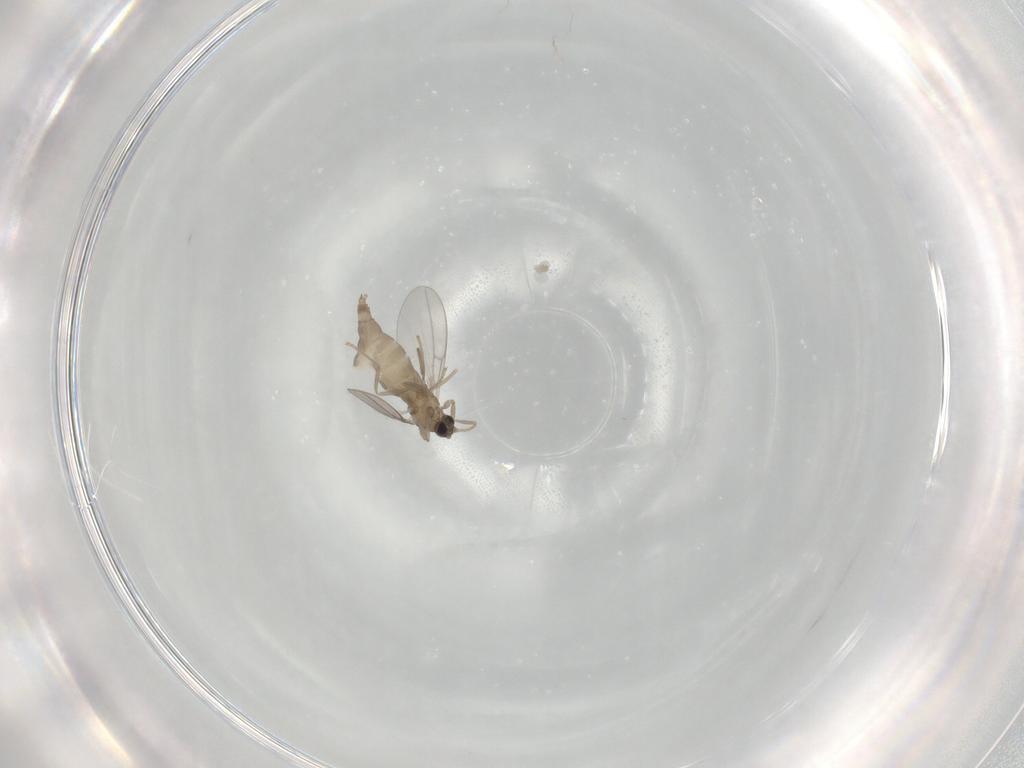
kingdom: Animalia
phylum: Arthropoda
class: Insecta
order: Diptera
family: Cecidomyiidae
